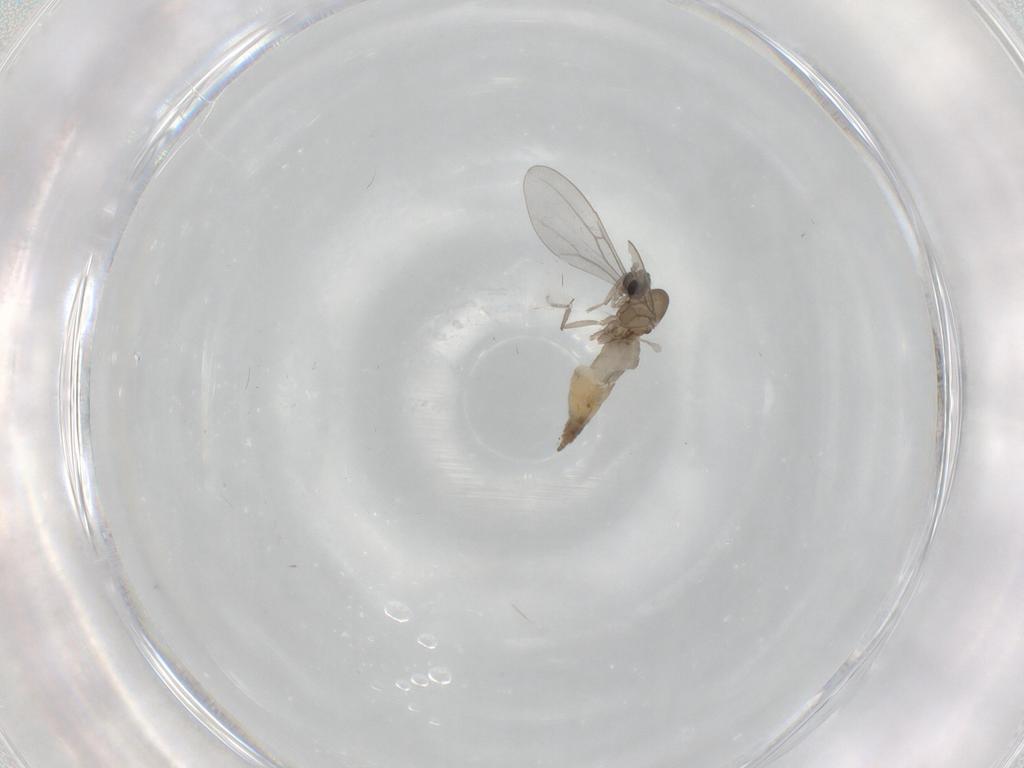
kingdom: Animalia
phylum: Arthropoda
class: Insecta
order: Diptera
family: Cecidomyiidae
